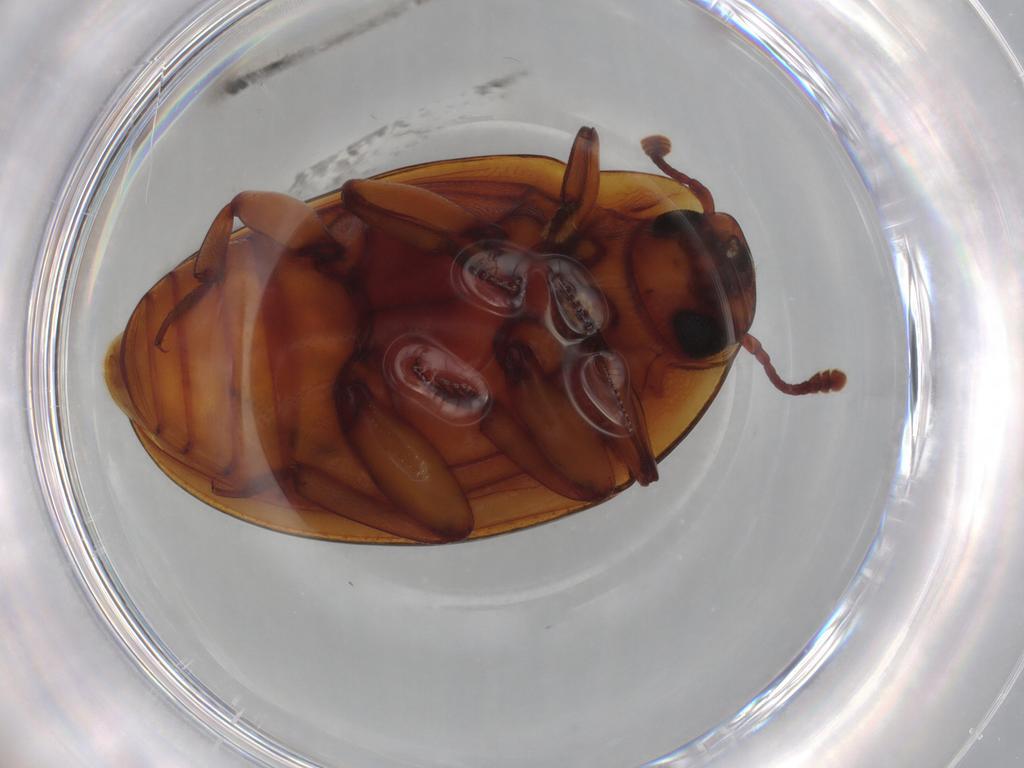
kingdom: Animalia
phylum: Arthropoda
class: Insecta
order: Coleoptera
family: Zopheridae
